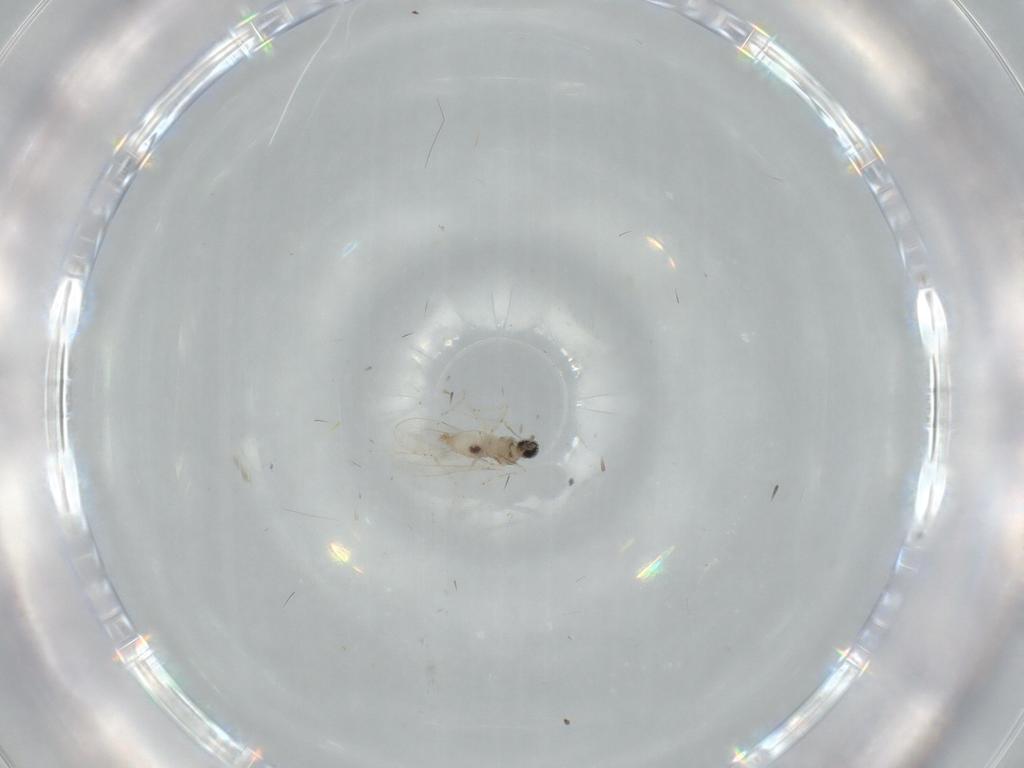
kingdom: Animalia
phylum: Arthropoda
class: Insecta
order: Diptera
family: Cecidomyiidae
